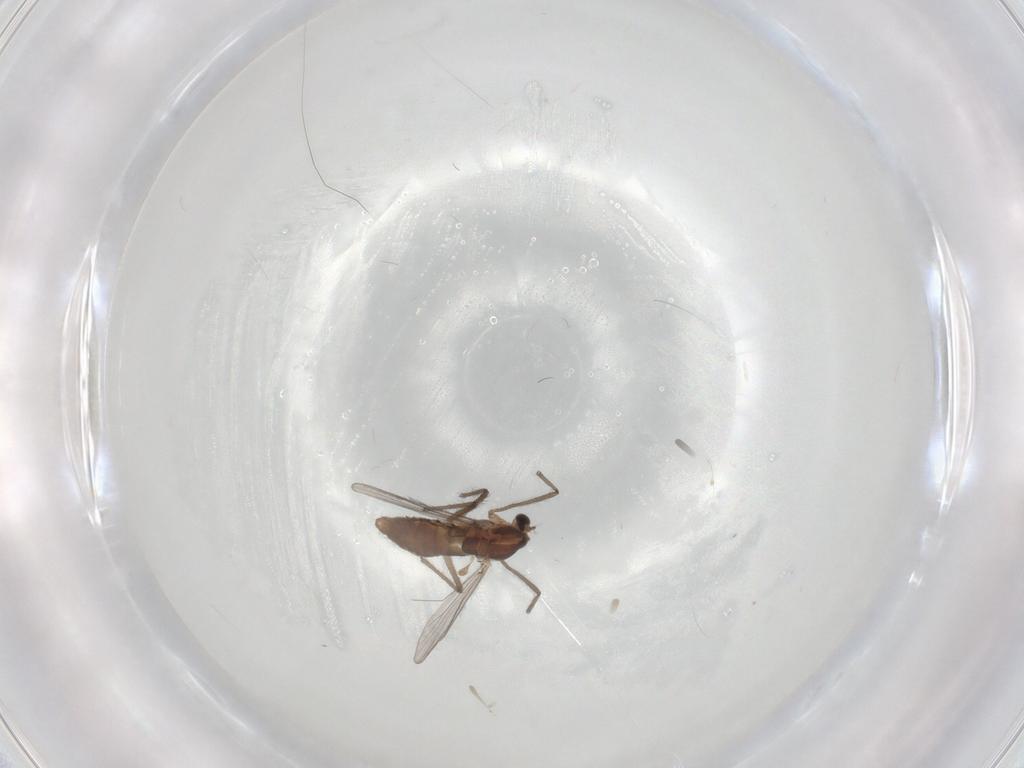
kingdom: Animalia
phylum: Arthropoda
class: Insecta
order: Diptera
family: Chironomidae
